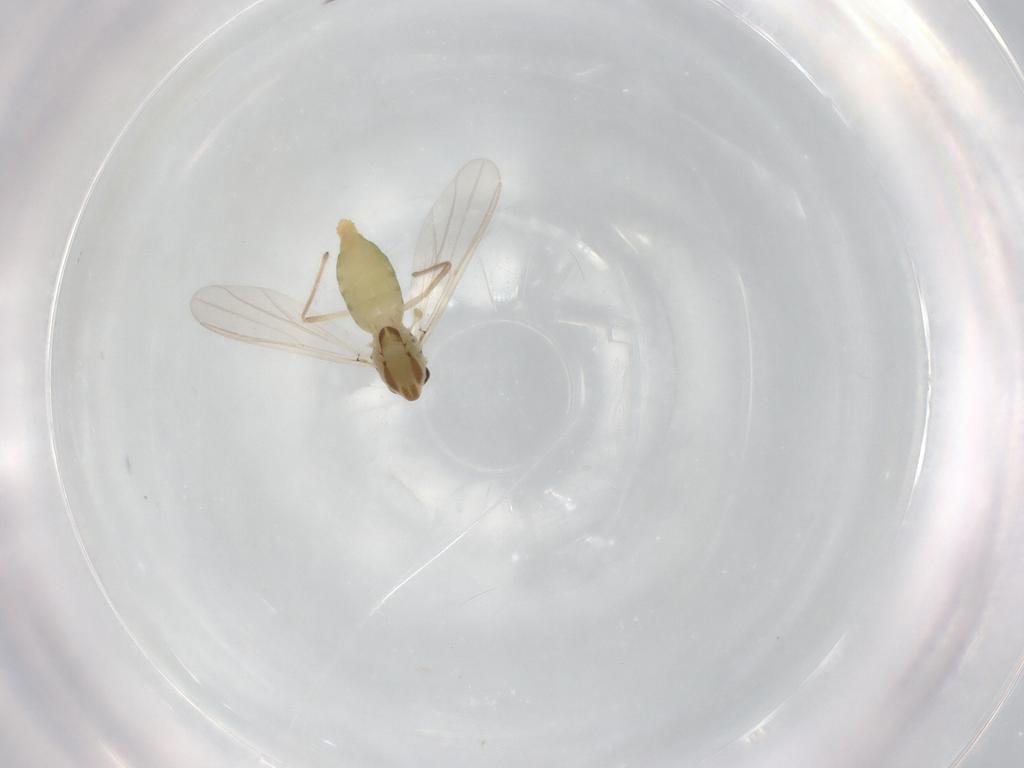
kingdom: Animalia
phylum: Arthropoda
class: Insecta
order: Diptera
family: Chironomidae
